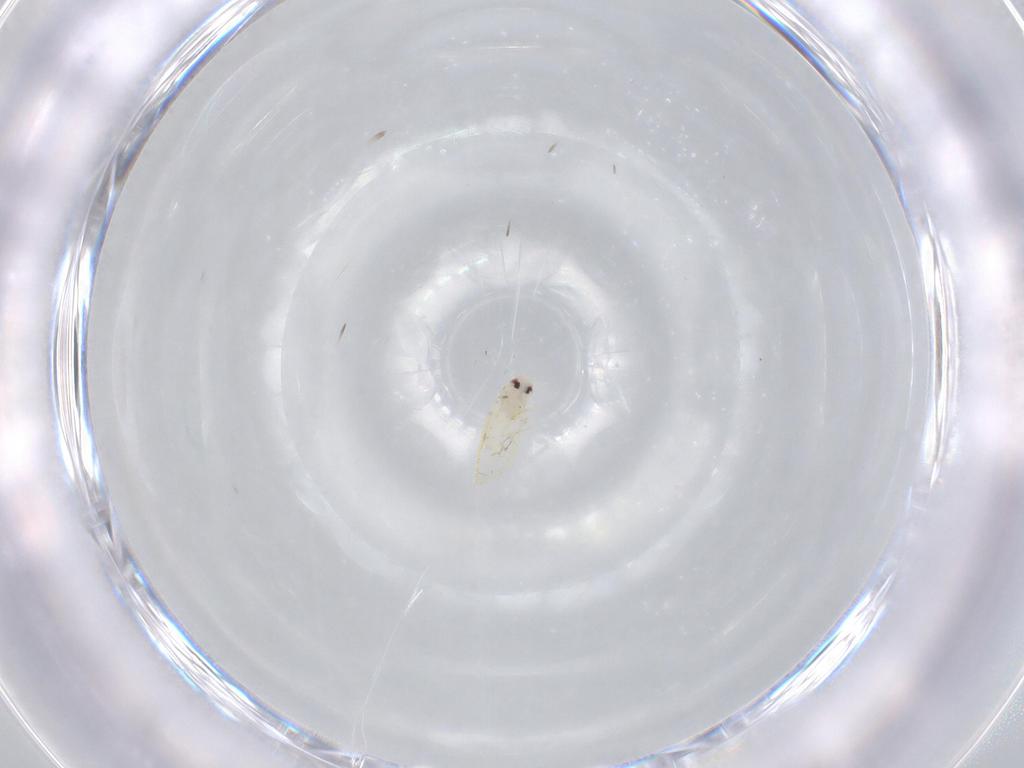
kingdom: Animalia
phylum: Arthropoda
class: Insecta
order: Hemiptera
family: Aleyrodidae
